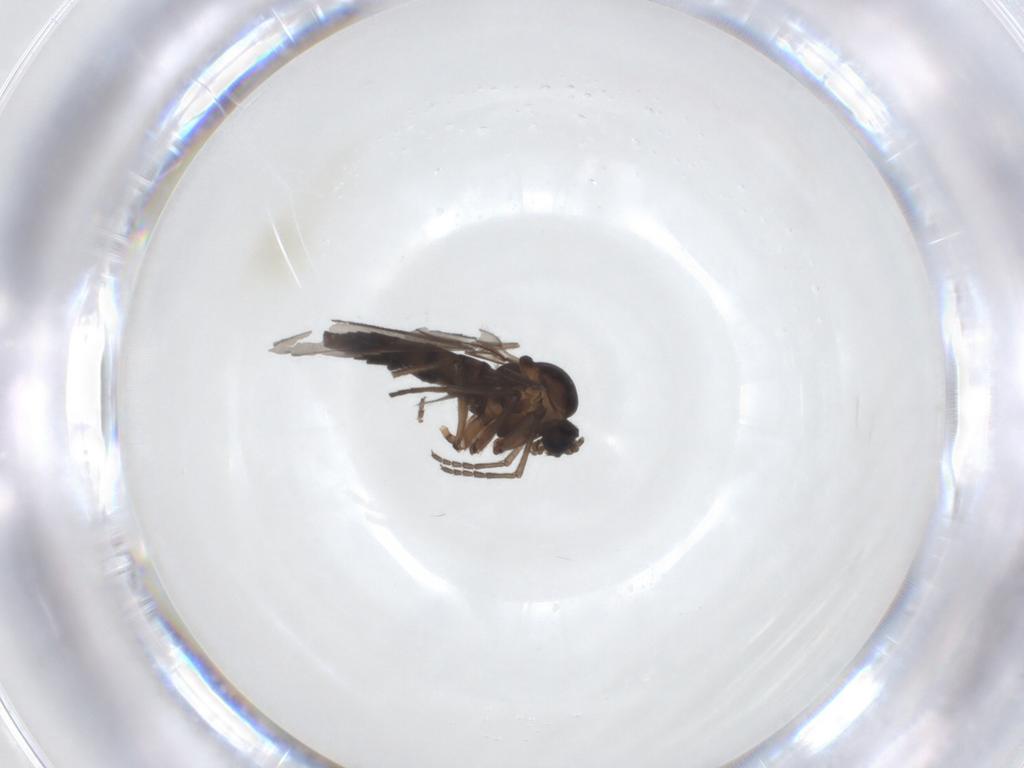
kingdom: Animalia
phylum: Arthropoda
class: Insecta
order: Diptera
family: Sciaridae
